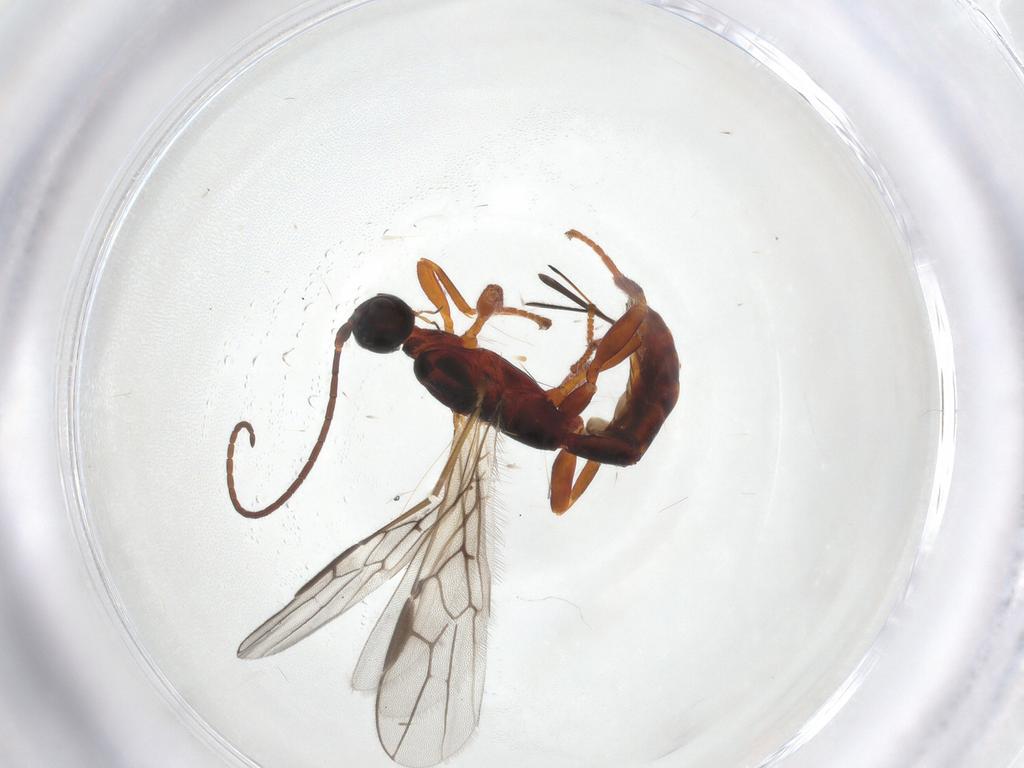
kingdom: Animalia
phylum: Arthropoda
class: Insecta
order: Hymenoptera
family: Braconidae
